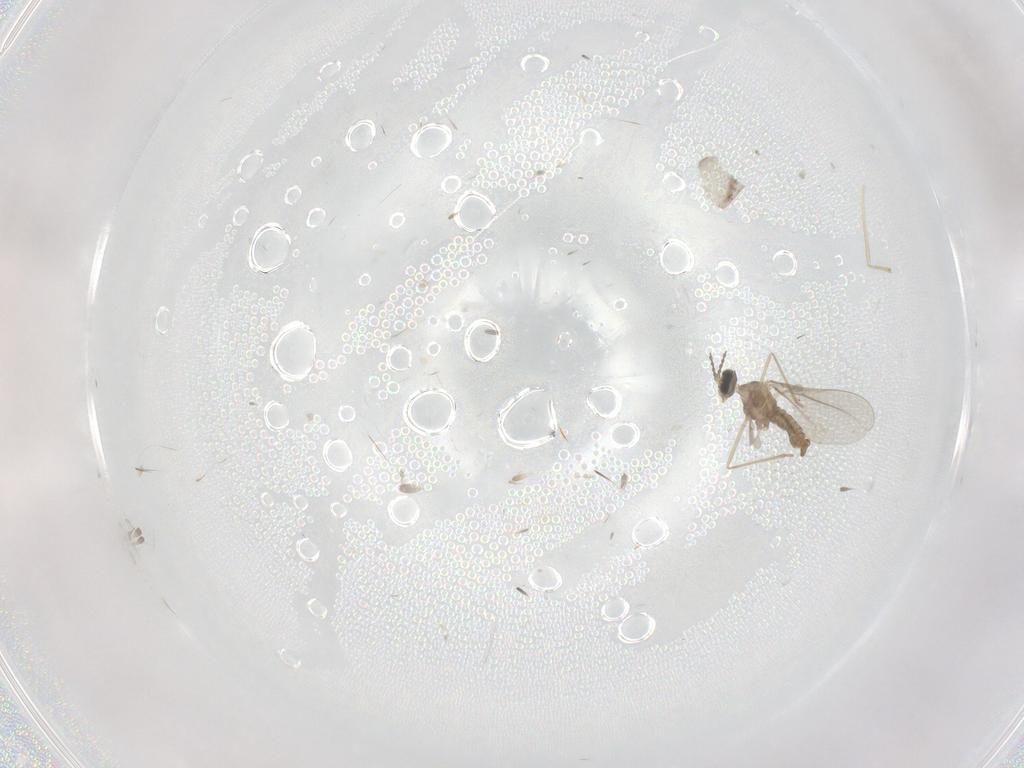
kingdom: Animalia
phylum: Arthropoda
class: Insecta
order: Diptera
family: Cecidomyiidae
